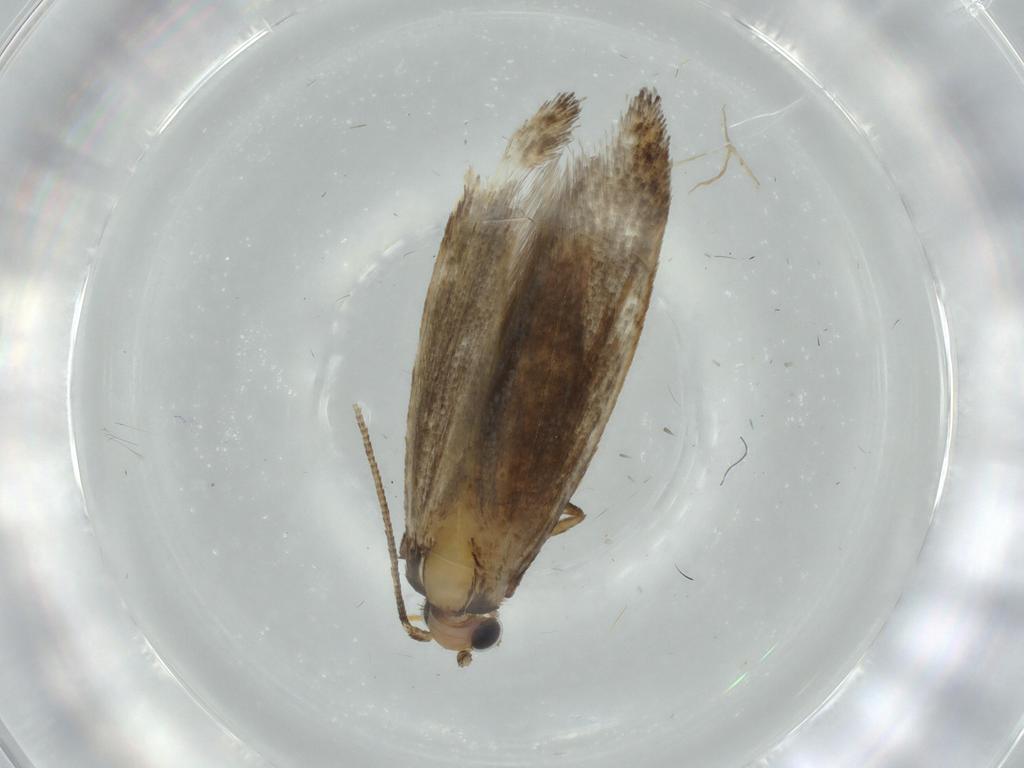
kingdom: Animalia
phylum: Arthropoda
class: Insecta
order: Lepidoptera
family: Tineidae
